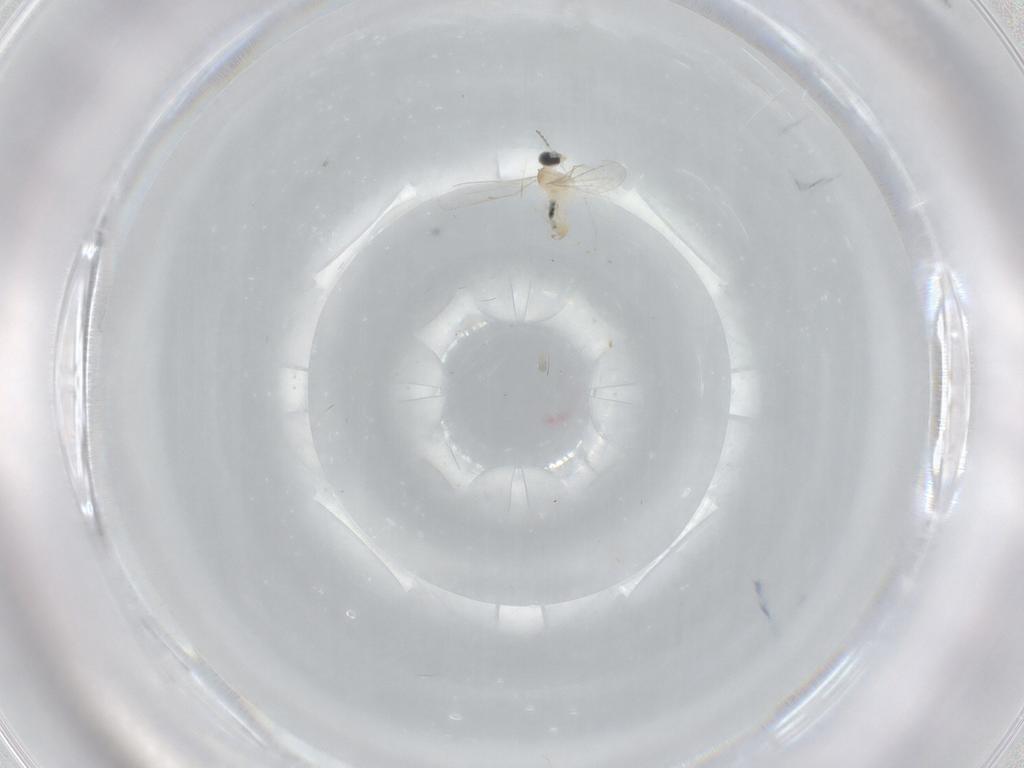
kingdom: Animalia
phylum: Arthropoda
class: Insecta
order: Diptera
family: Cecidomyiidae
